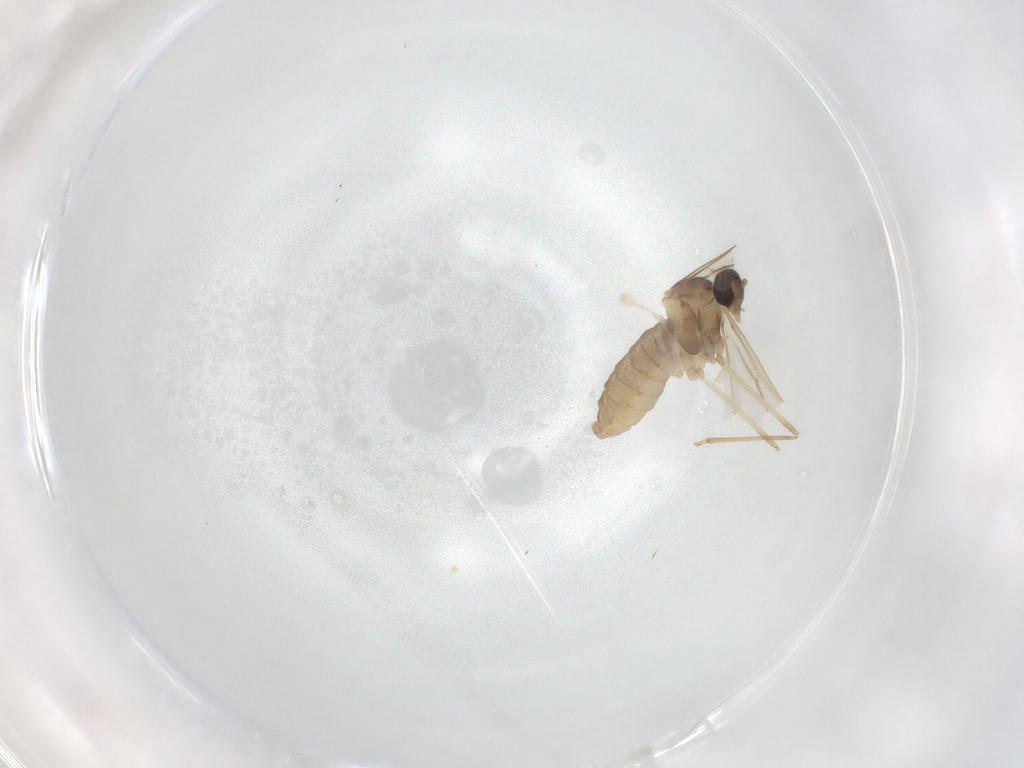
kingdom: Animalia
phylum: Arthropoda
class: Insecta
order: Diptera
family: Cecidomyiidae
